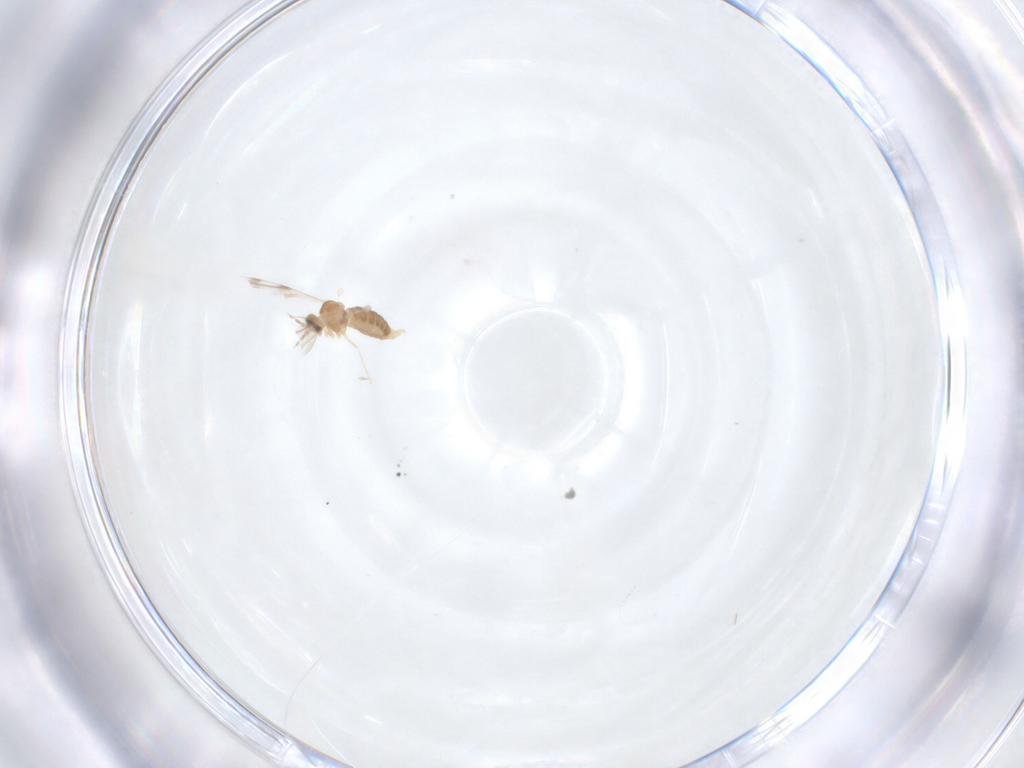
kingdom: Animalia
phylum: Arthropoda
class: Insecta
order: Diptera
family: Cecidomyiidae
